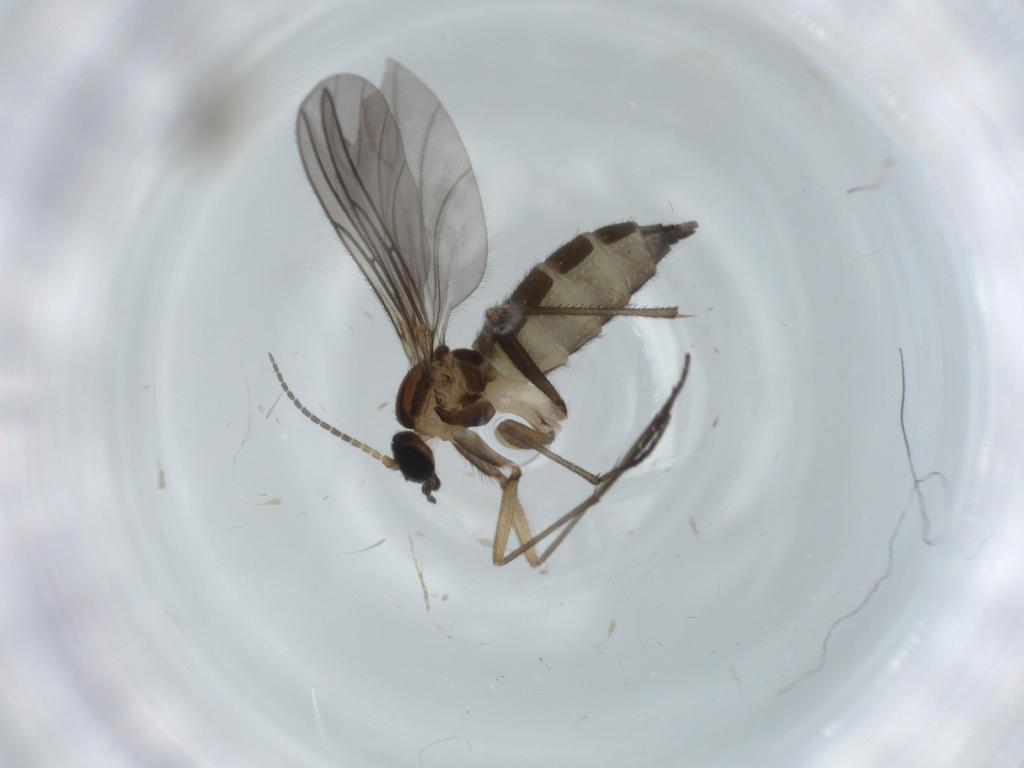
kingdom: Animalia
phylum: Arthropoda
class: Insecta
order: Diptera
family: Sciaridae
